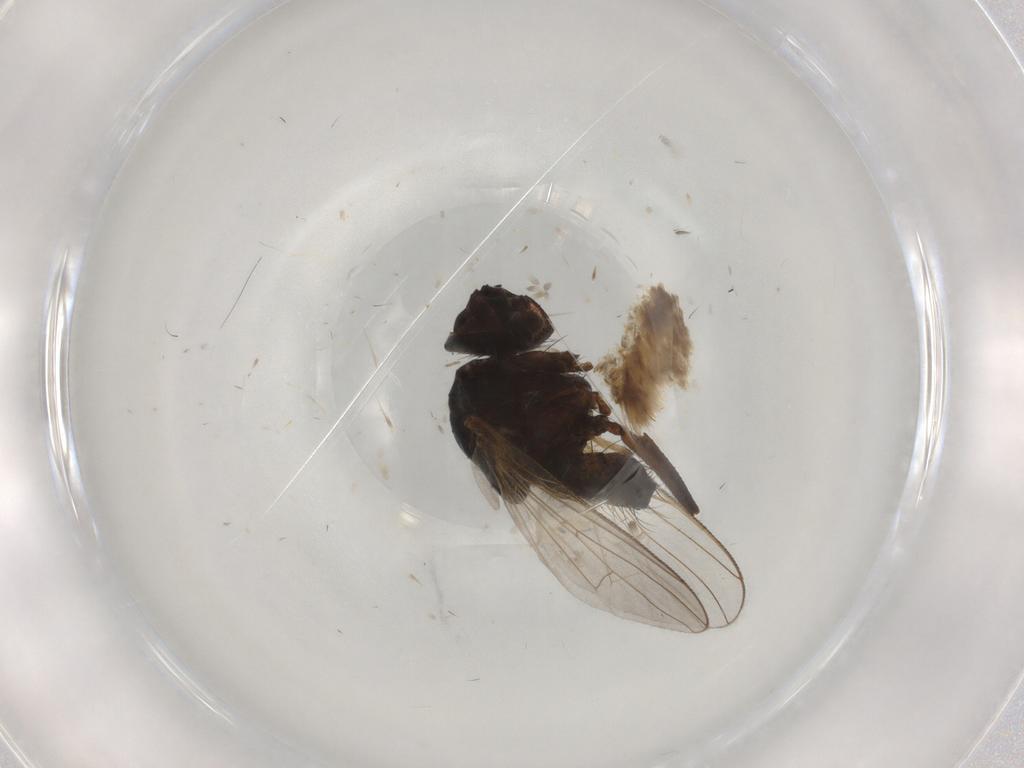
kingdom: Animalia
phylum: Arthropoda
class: Insecta
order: Diptera
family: Muscidae
